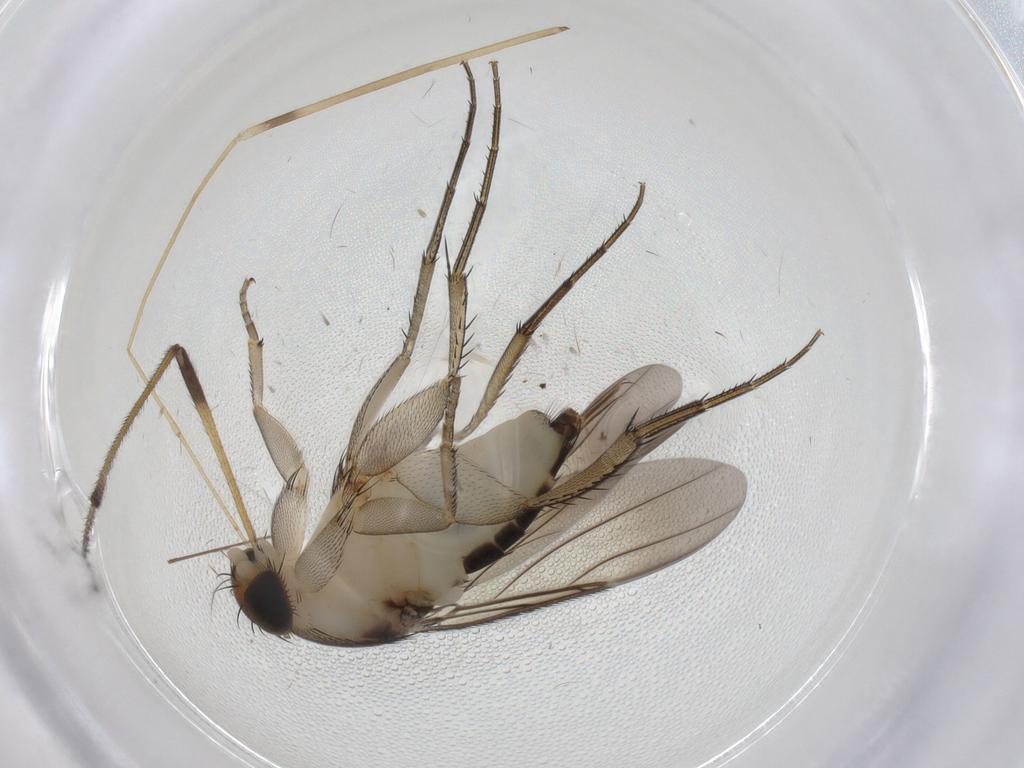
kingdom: Animalia
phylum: Arthropoda
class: Insecta
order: Diptera
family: Phoridae
